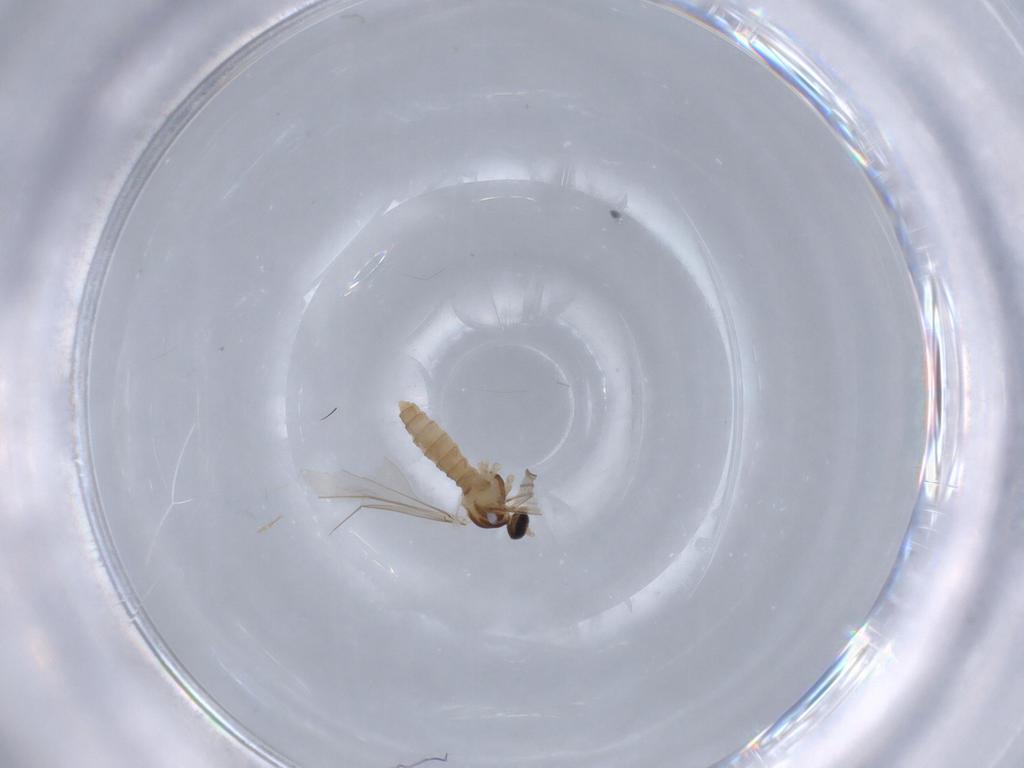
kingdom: Animalia
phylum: Arthropoda
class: Insecta
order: Diptera
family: Cecidomyiidae
